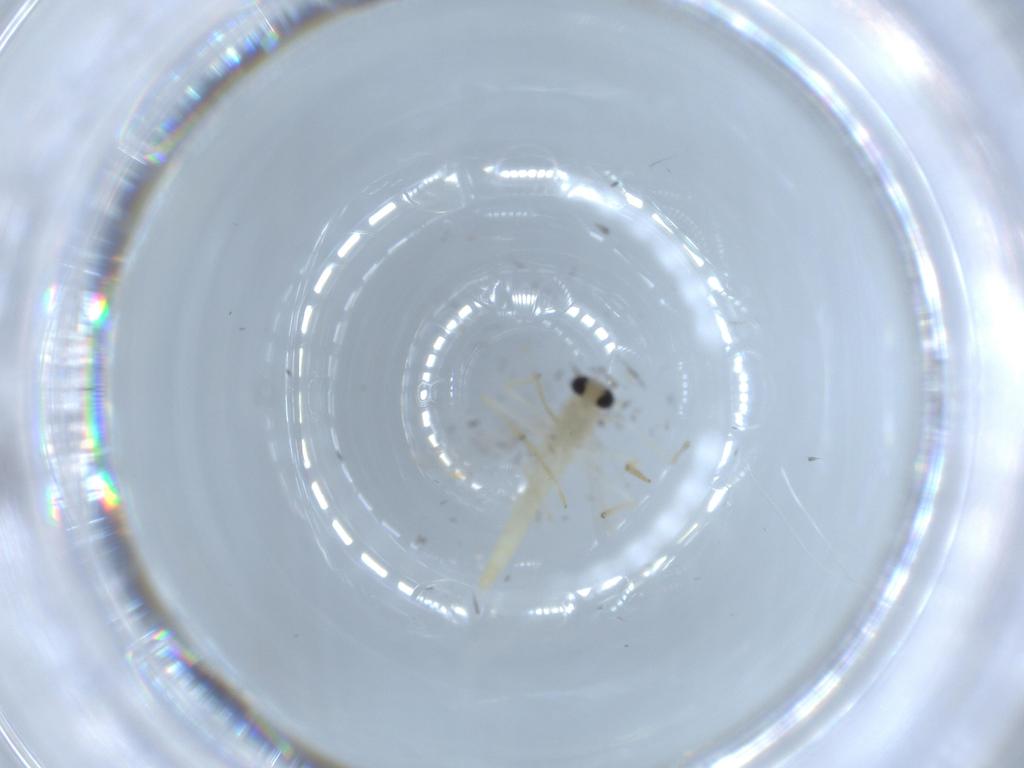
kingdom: Animalia
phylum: Arthropoda
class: Insecta
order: Diptera
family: Chironomidae
